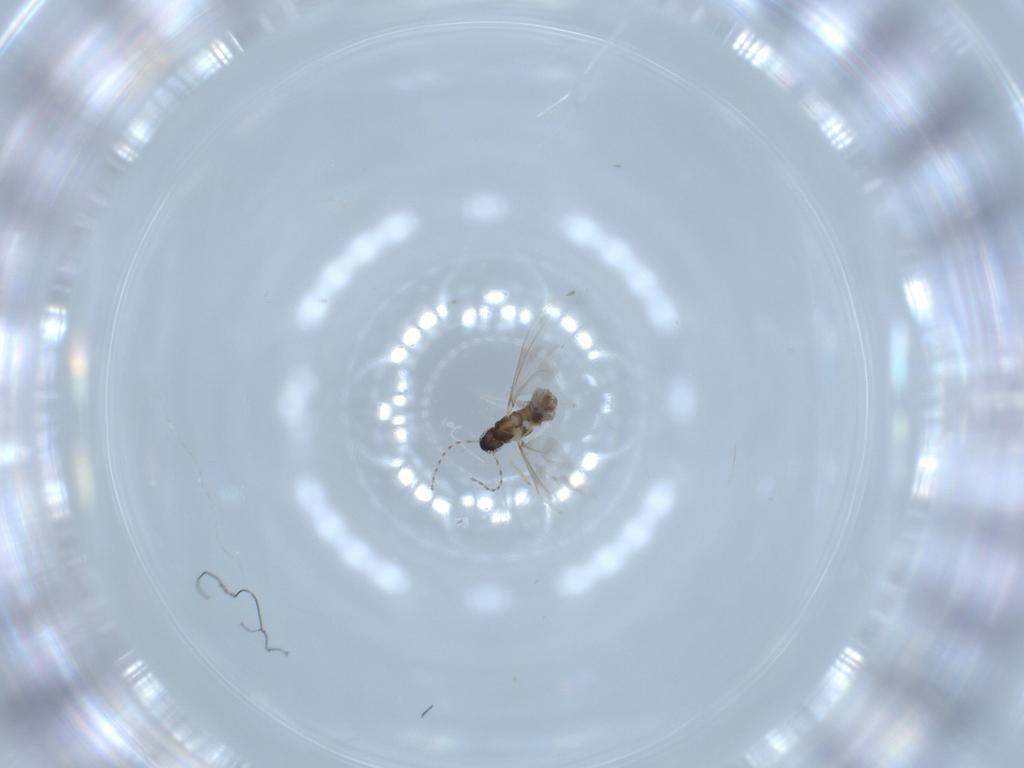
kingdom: Animalia
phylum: Arthropoda
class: Insecta
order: Diptera
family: Cecidomyiidae
